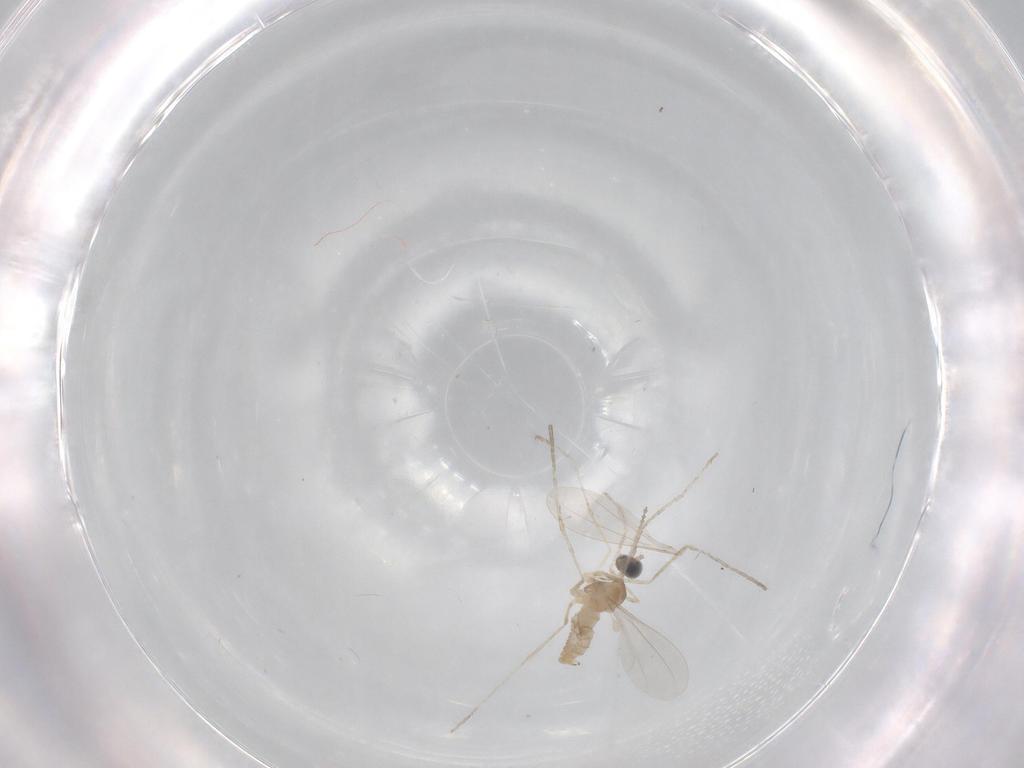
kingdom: Animalia
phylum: Arthropoda
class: Insecta
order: Diptera
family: Cecidomyiidae
